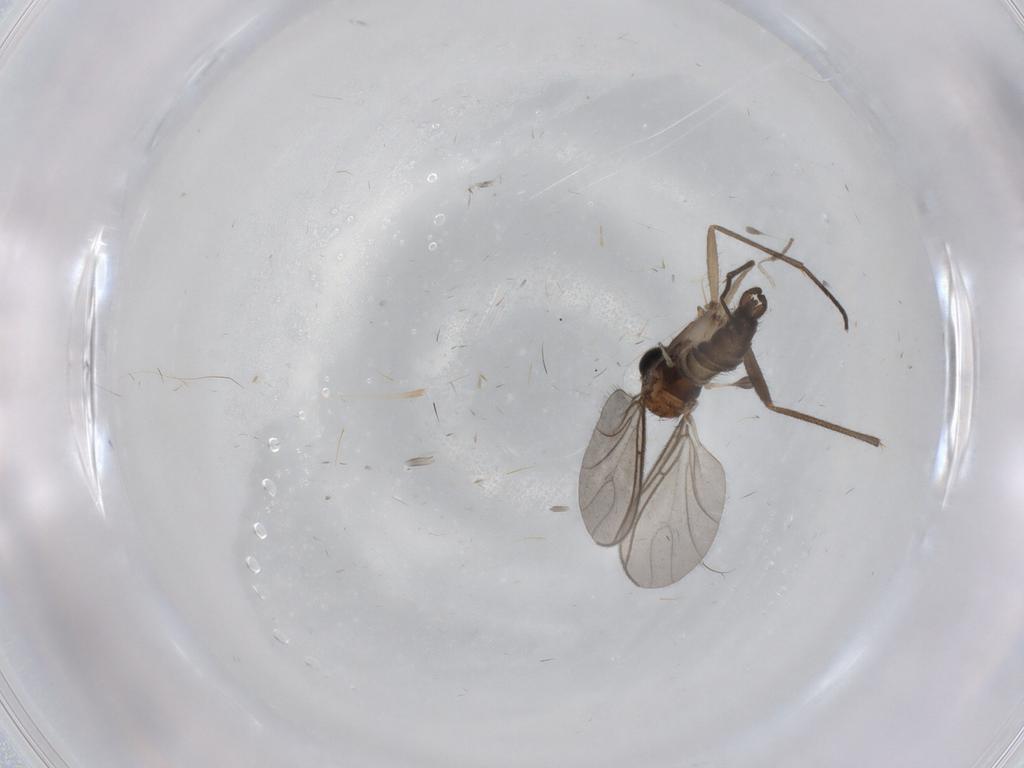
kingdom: Animalia
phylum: Arthropoda
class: Insecta
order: Diptera
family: Sciaridae
